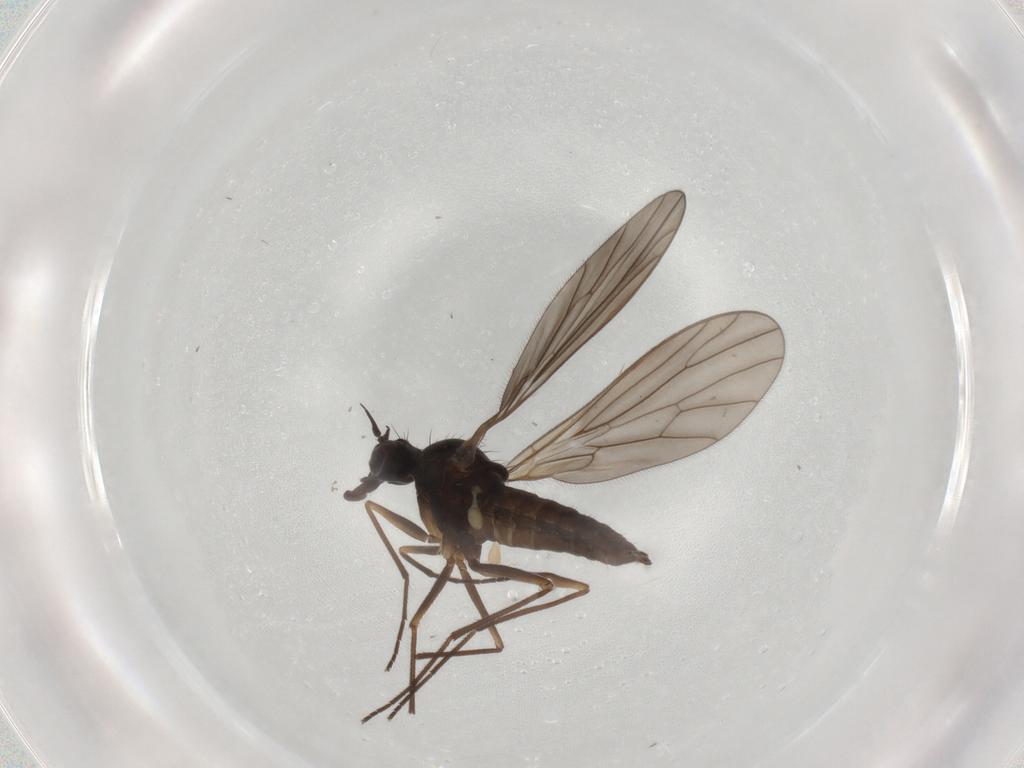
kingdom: Animalia
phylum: Arthropoda
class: Insecta
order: Diptera
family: Empididae
